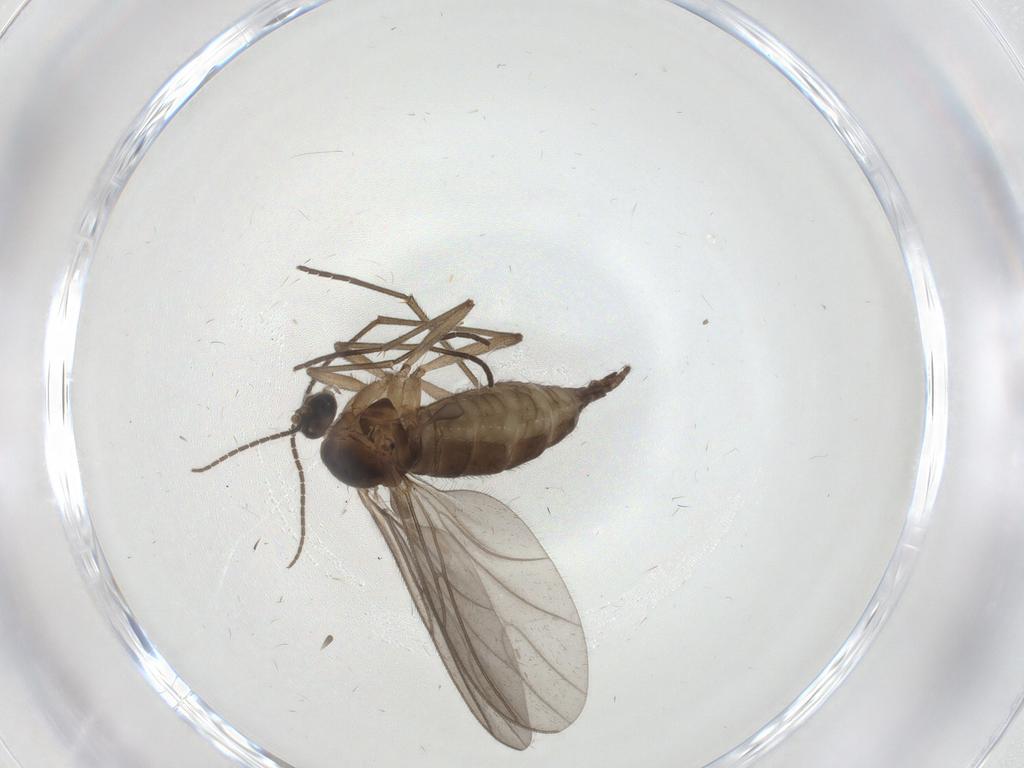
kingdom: Animalia
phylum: Arthropoda
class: Insecta
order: Diptera
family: Sciaridae
